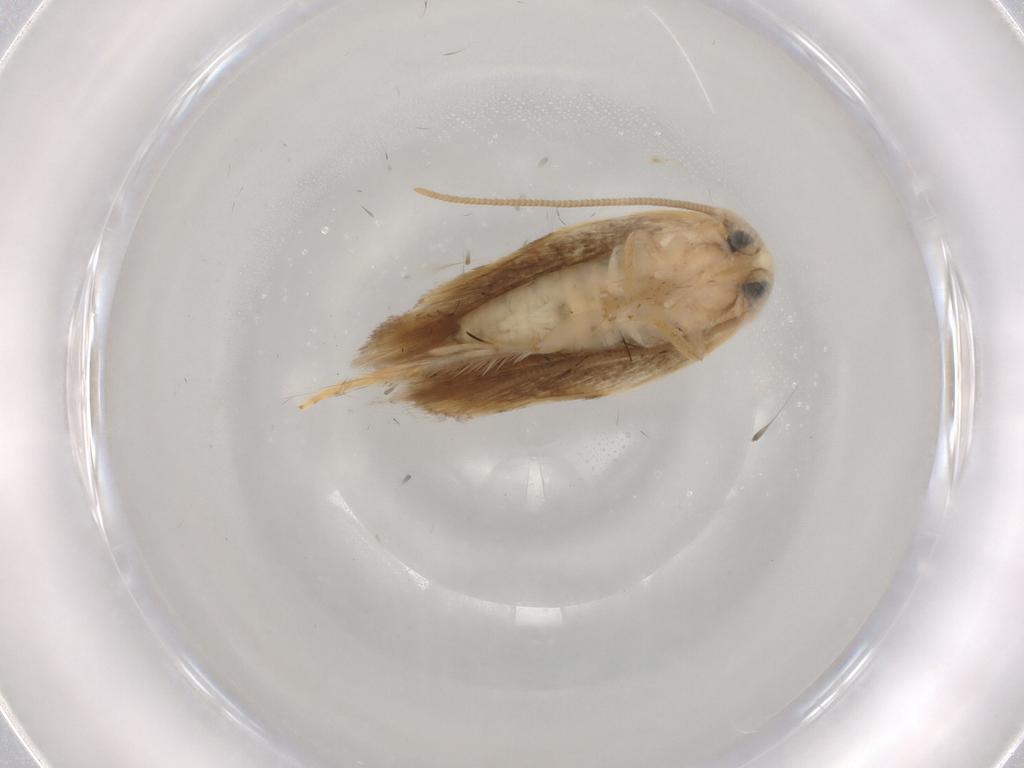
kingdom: Animalia
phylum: Arthropoda
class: Insecta
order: Lepidoptera
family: Opostegidae
